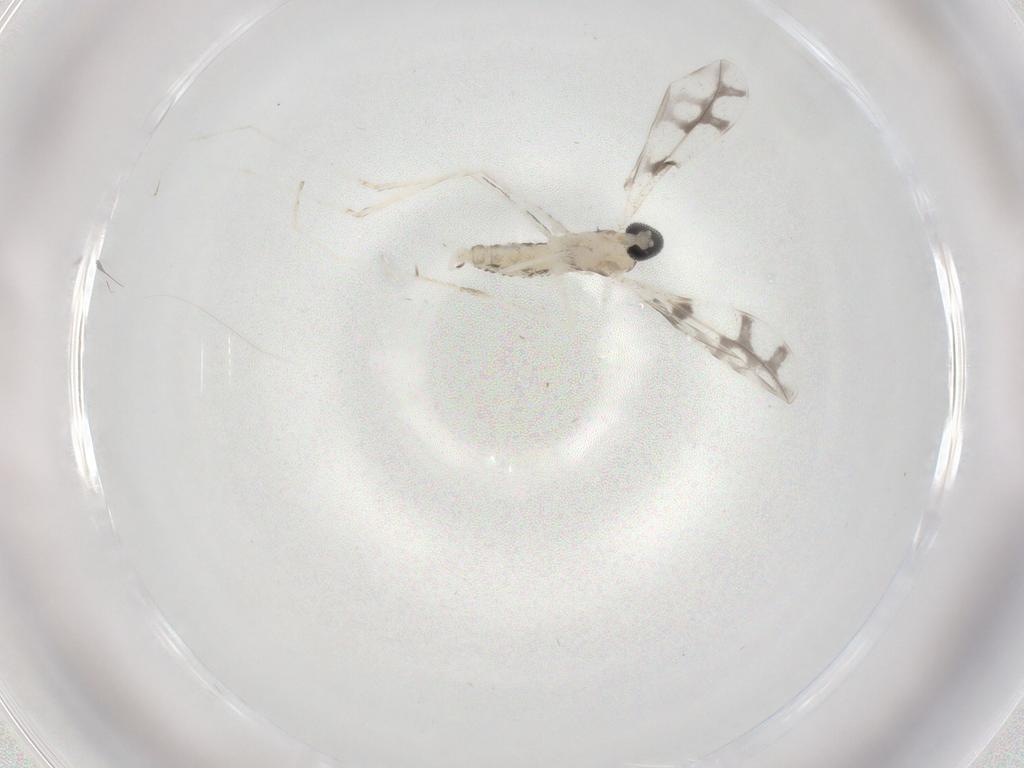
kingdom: Animalia
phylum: Arthropoda
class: Insecta
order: Diptera
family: Cecidomyiidae
